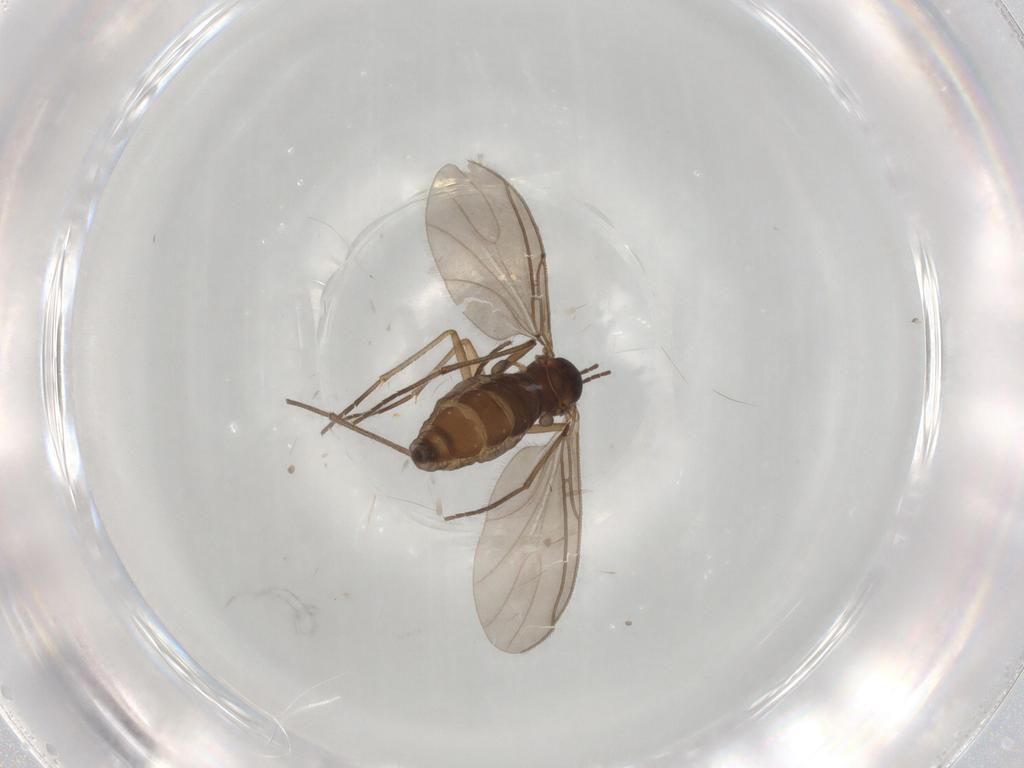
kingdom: Animalia
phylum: Arthropoda
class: Insecta
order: Diptera
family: Sciaridae
